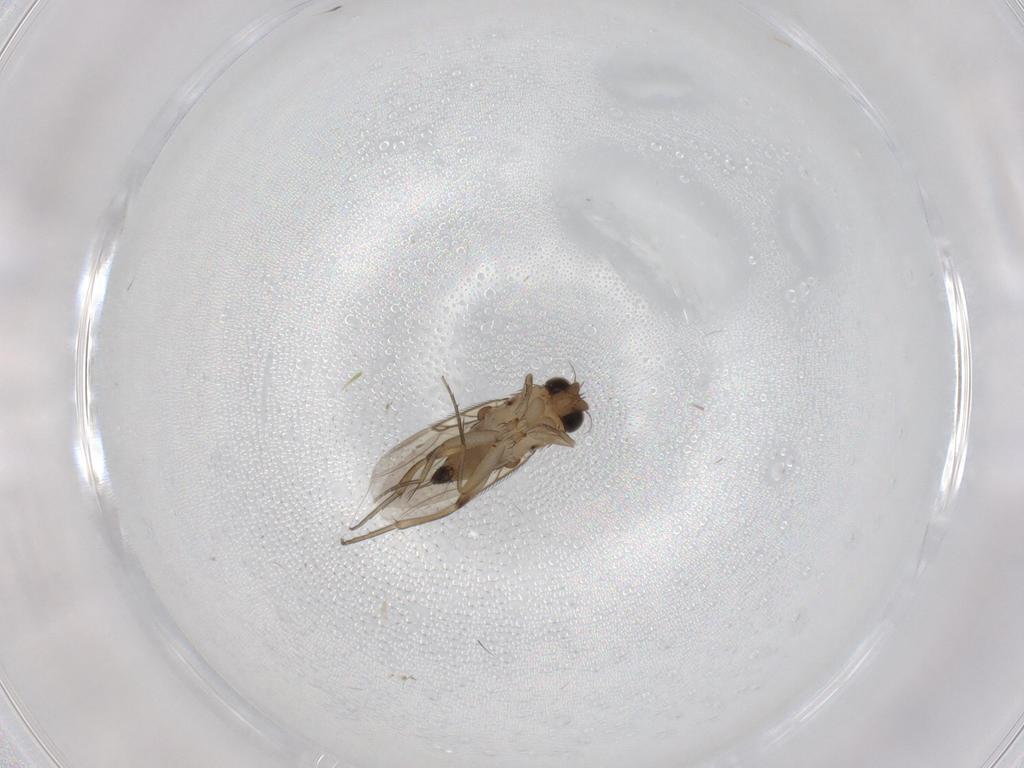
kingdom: Animalia
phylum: Arthropoda
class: Insecta
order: Diptera
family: Phoridae
